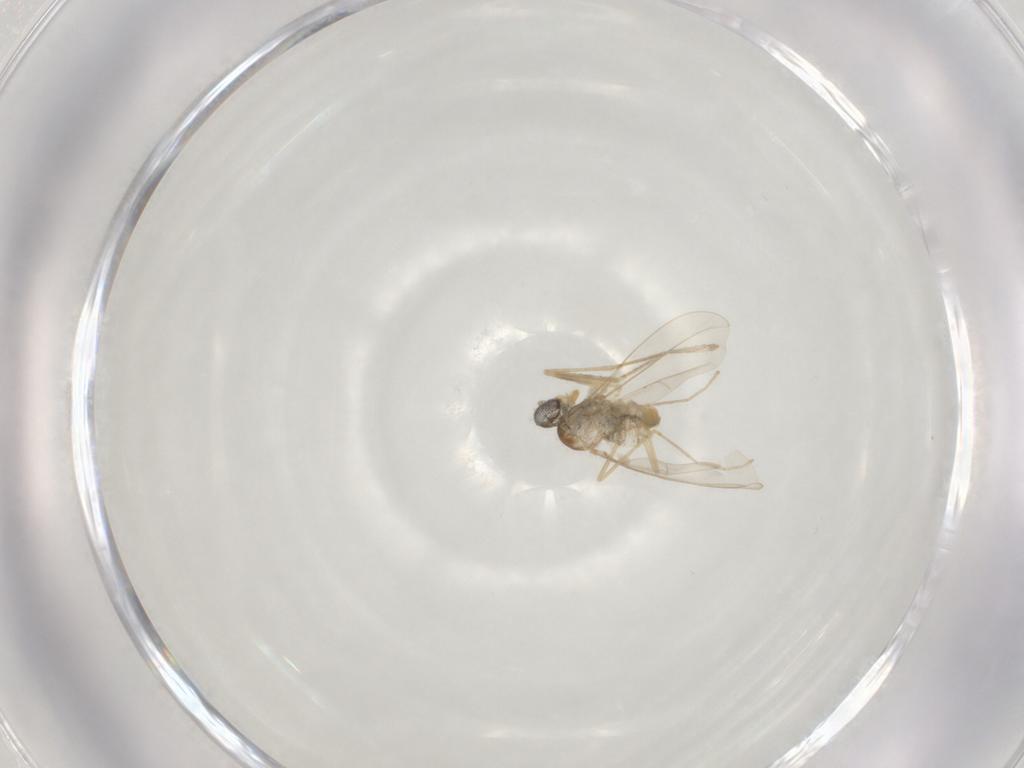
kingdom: Animalia
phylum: Arthropoda
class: Insecta
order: Diptera
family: Cecidomyiidae
